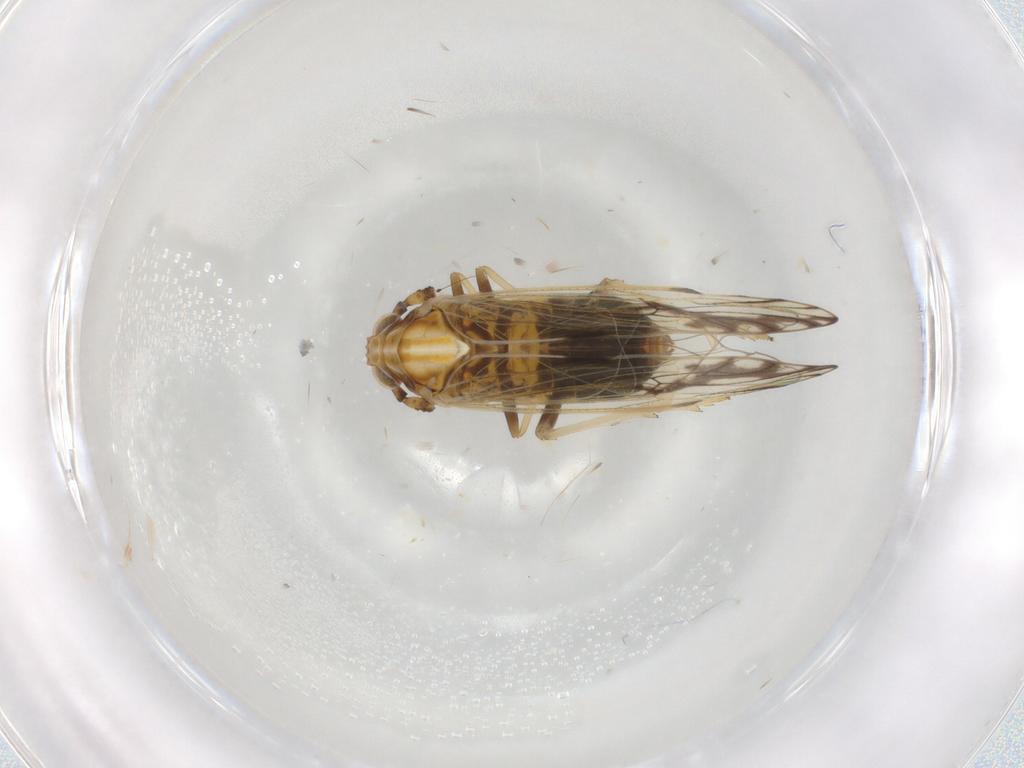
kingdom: Animalia
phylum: Arthropoda
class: Insecta
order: Hemiptera
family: Delphacidae
